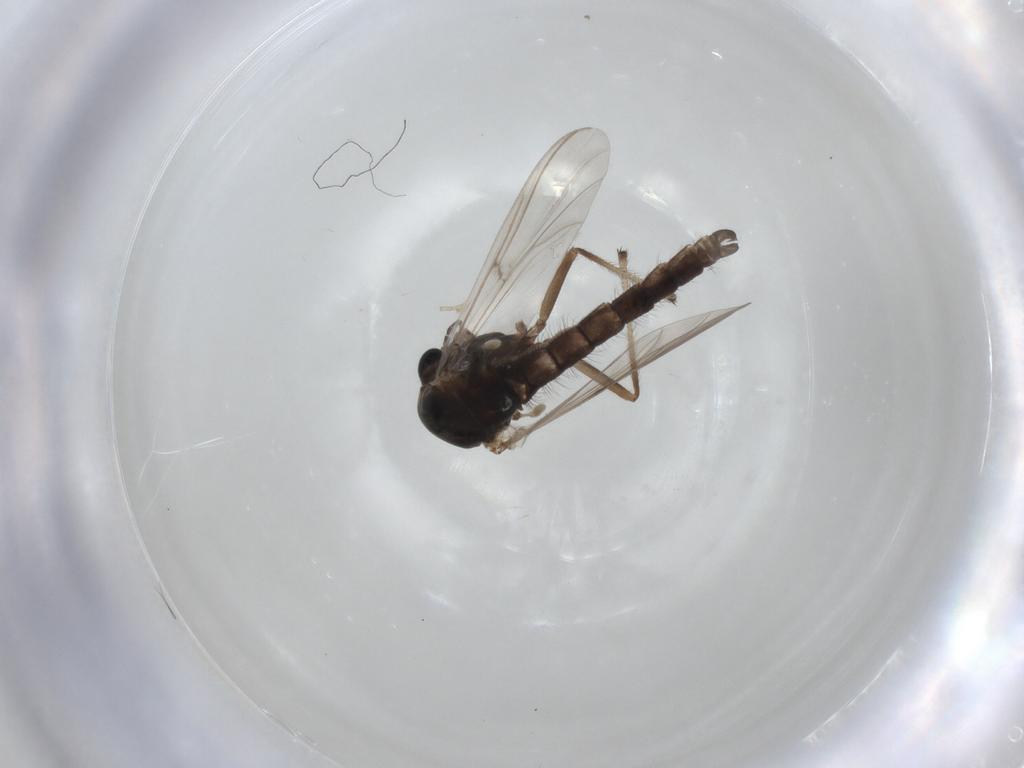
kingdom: Animalia
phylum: Arthropoda
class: Insecta
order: Diptera
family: Chironomidae
